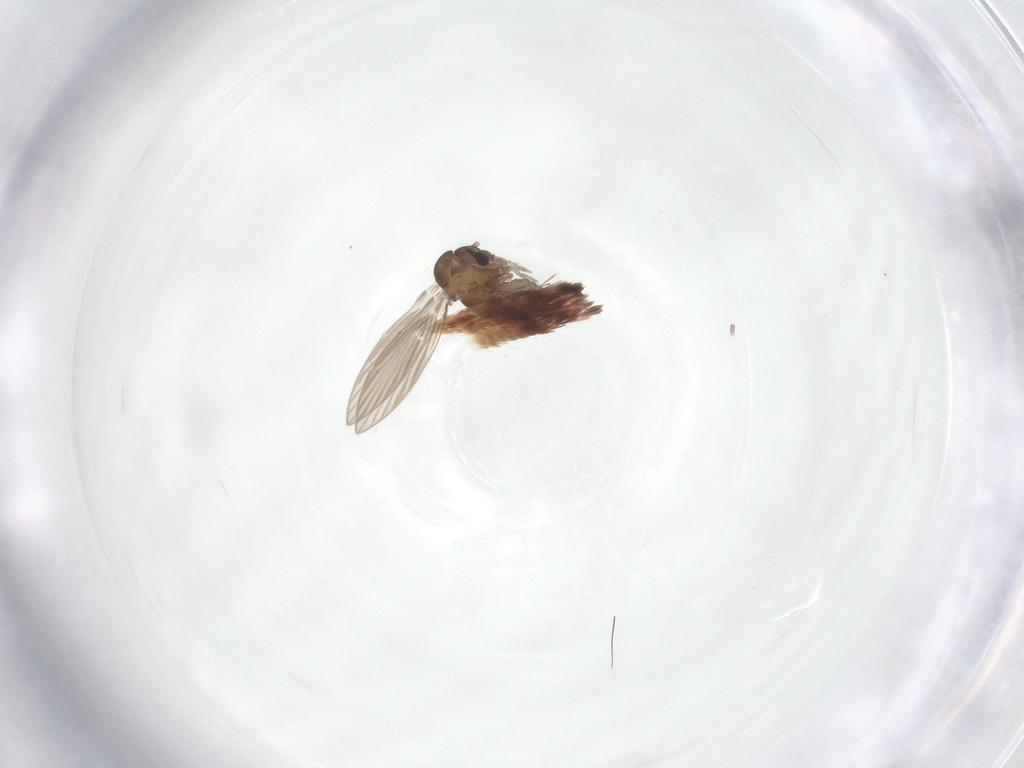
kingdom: Animalia
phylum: Arthropoda
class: Insecta
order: Diptera
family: Psychodidae
